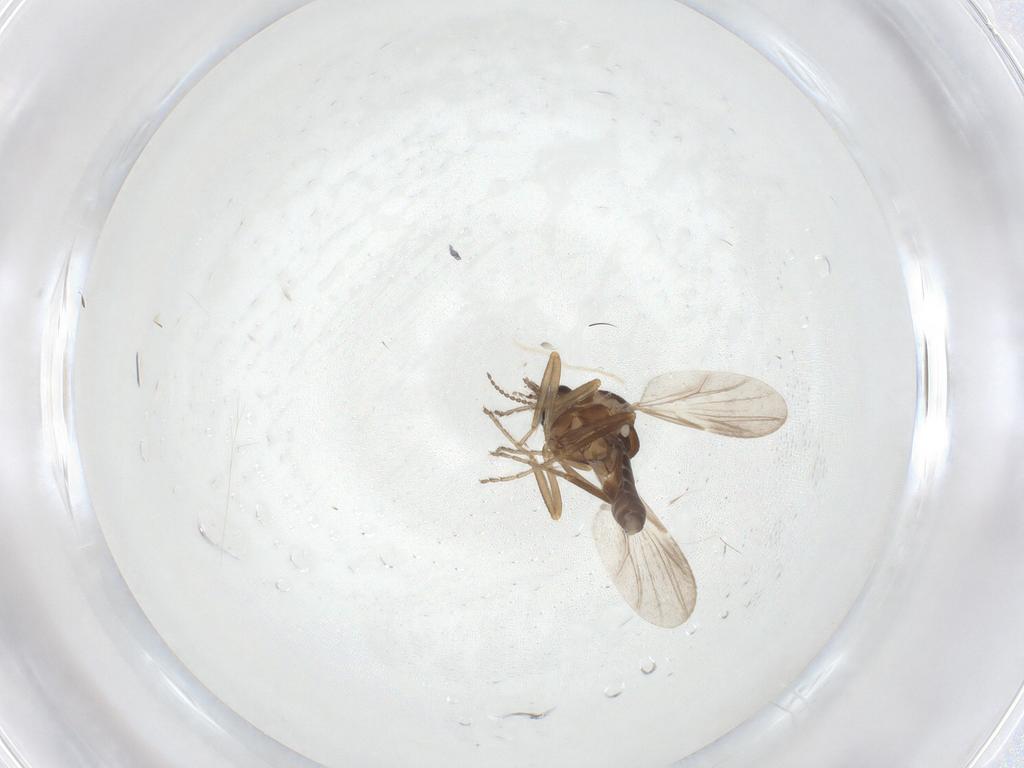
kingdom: Animalia
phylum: Arthropoda
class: Insecta
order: Diptera
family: Ceratopogonidae
